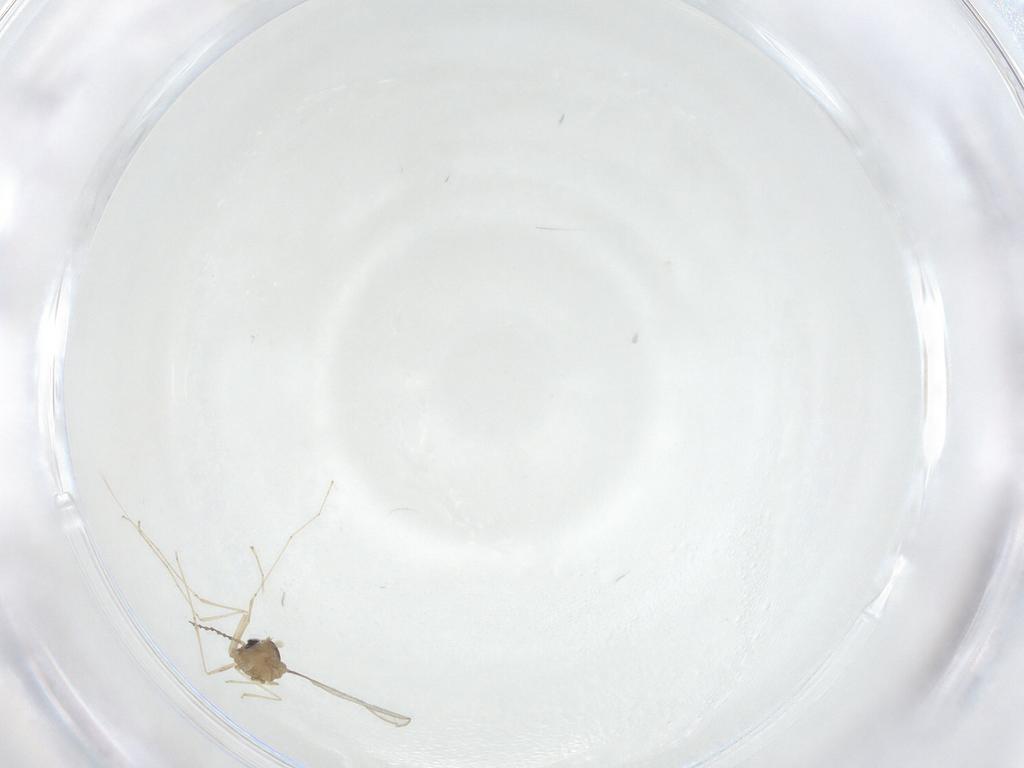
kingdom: Animalia
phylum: Arthropoda
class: Insecta
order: Diptera
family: Cecidomyiidae
